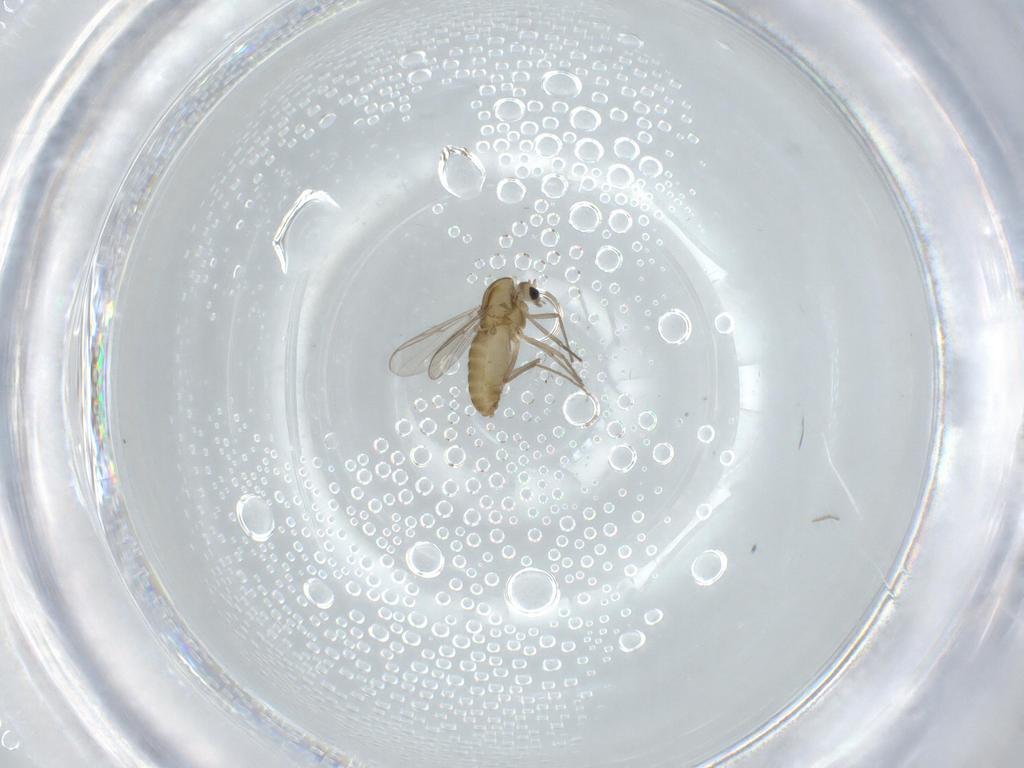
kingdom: Animalia
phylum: Arthropoda
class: Insecta
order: Diptera
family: Chironomidae
